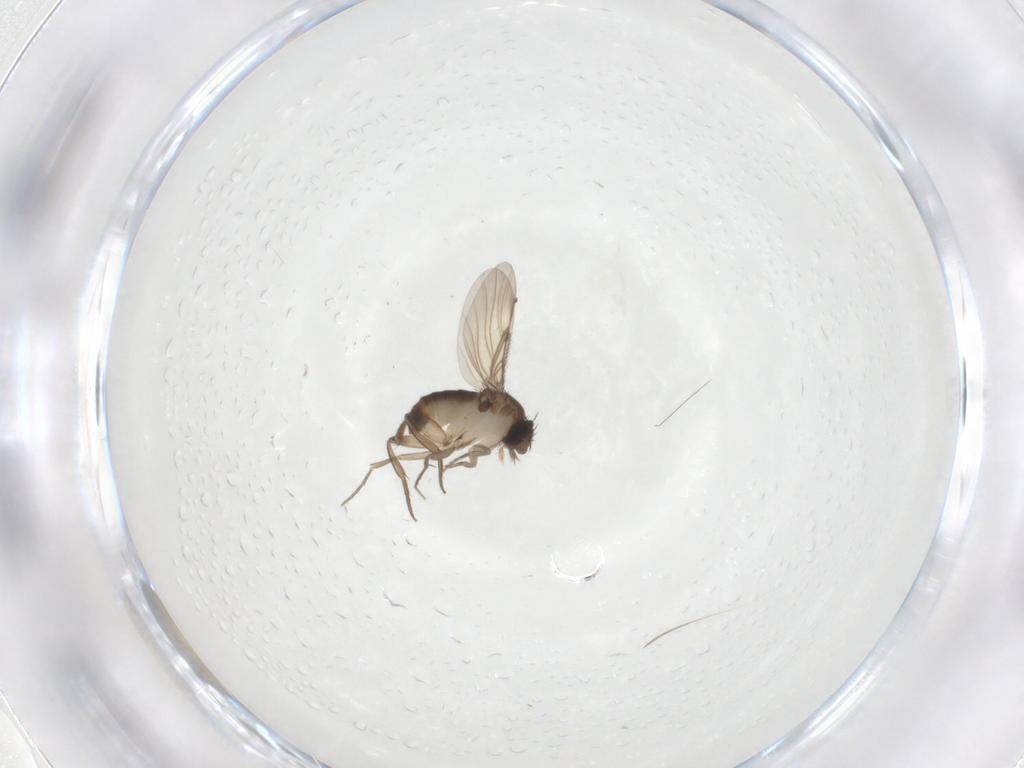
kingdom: Animalia
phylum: Arthropoda
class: Insecta
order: Diptera
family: Phoridae
